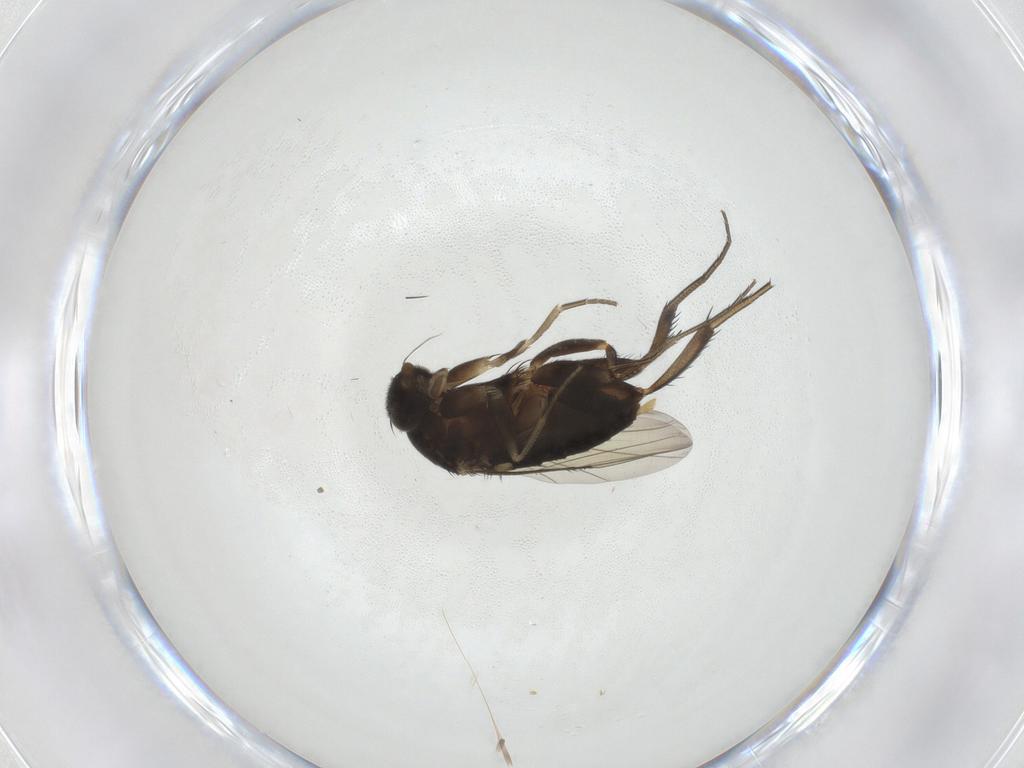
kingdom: Animalia
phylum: Arthropoda
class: Insecta
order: Diptera
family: Phoridae
